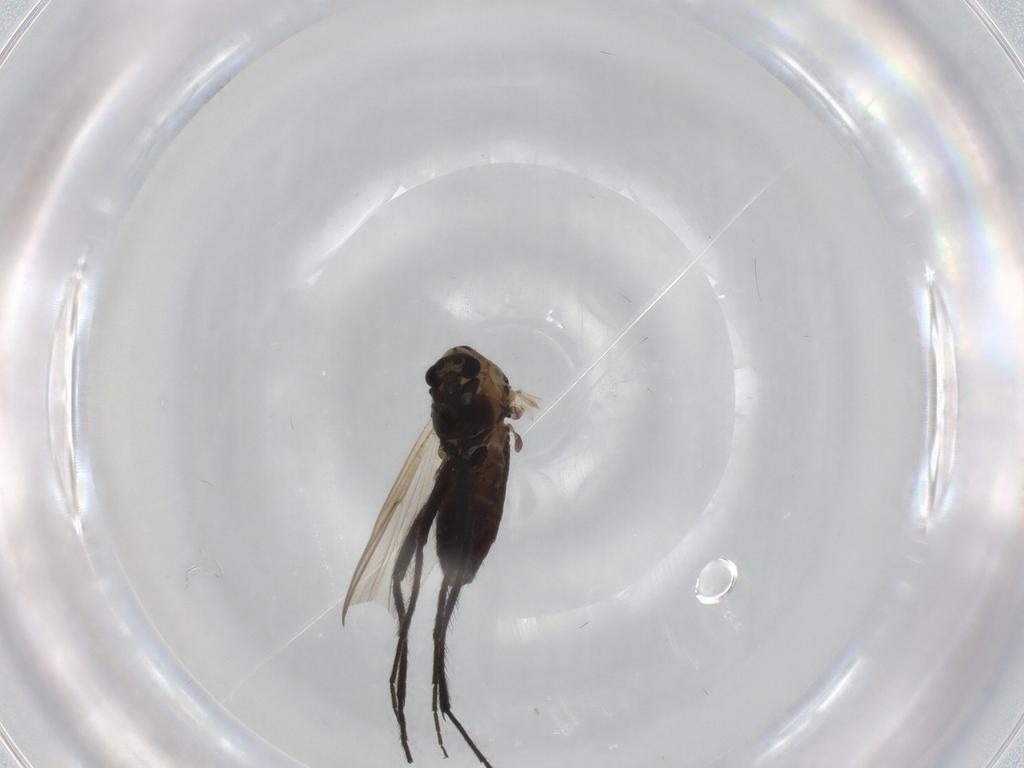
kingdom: Animalia
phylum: Arthropoda
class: Insecta
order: Diptera
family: Chironomidae
